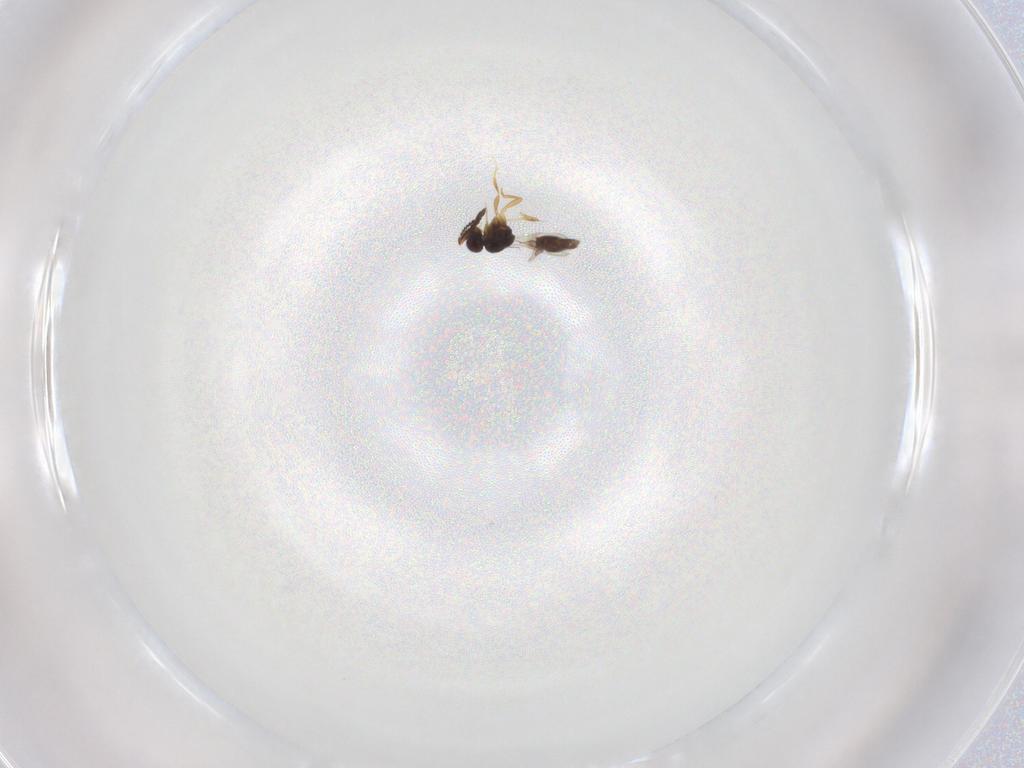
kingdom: Animalia
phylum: Arthropoda
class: Insecta
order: Hymenoptera
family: Ceraphronidae
